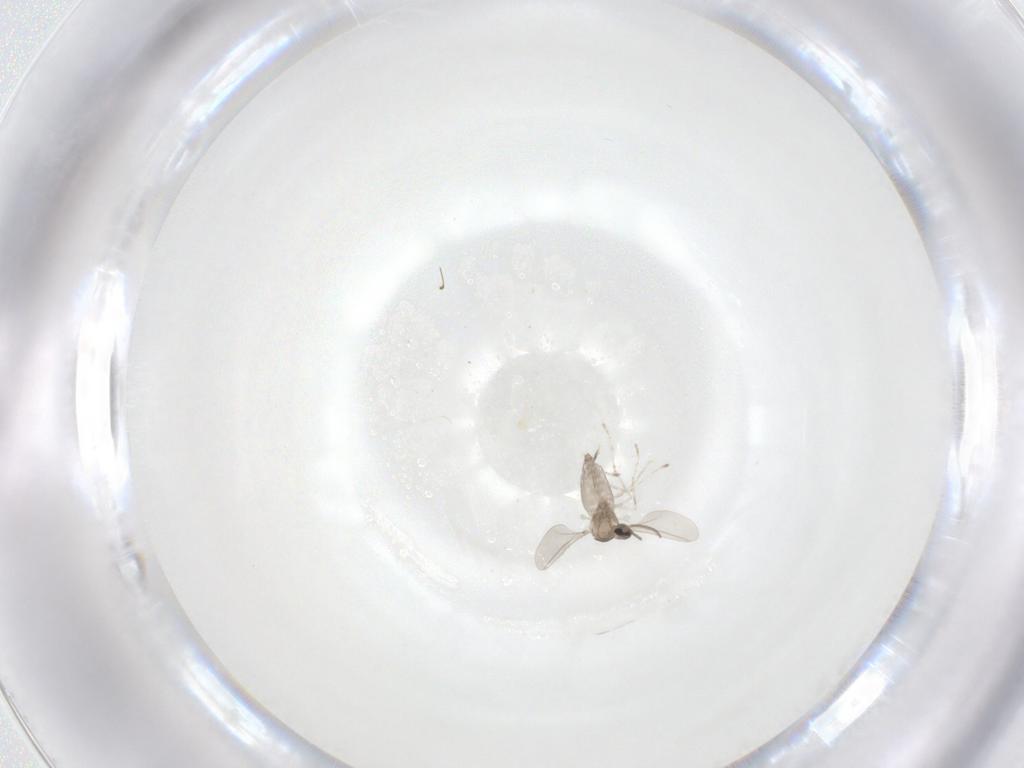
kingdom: Animalia
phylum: Arthropoda
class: Insecta
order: Diptera
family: Cecidomyiidae
